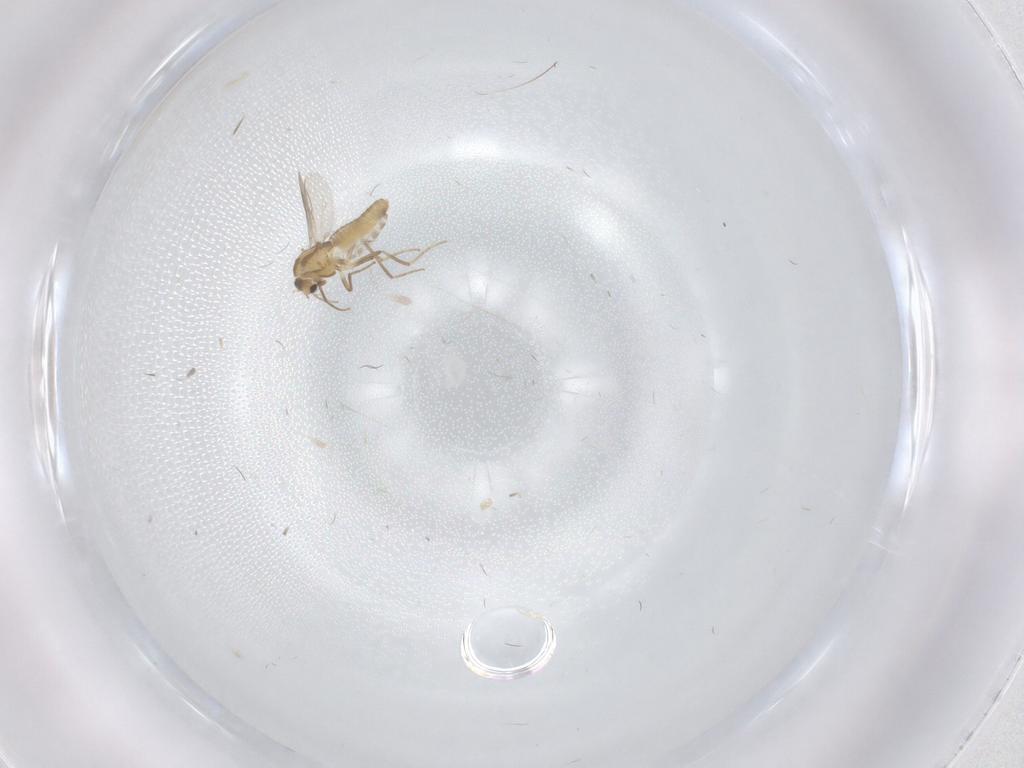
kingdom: Animalia
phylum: Arthropoda
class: Insecta
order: Diptera
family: Chironomidae
